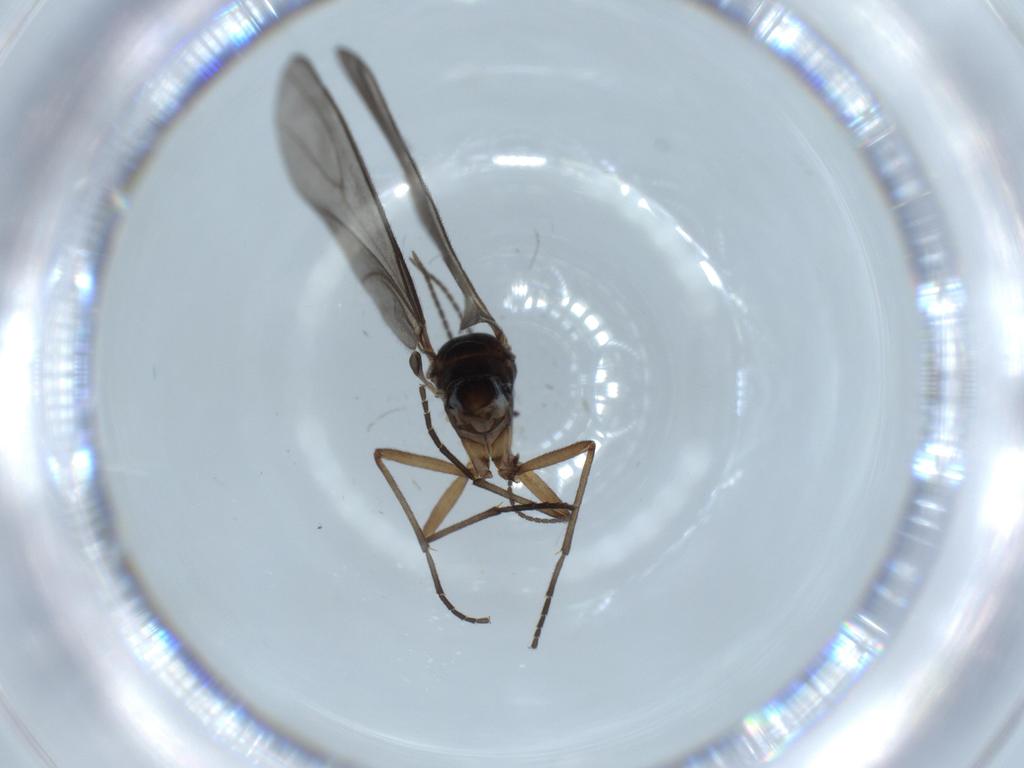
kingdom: Animalia
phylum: Arthropoda
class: Insecta
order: Diptera
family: Sciaridae
